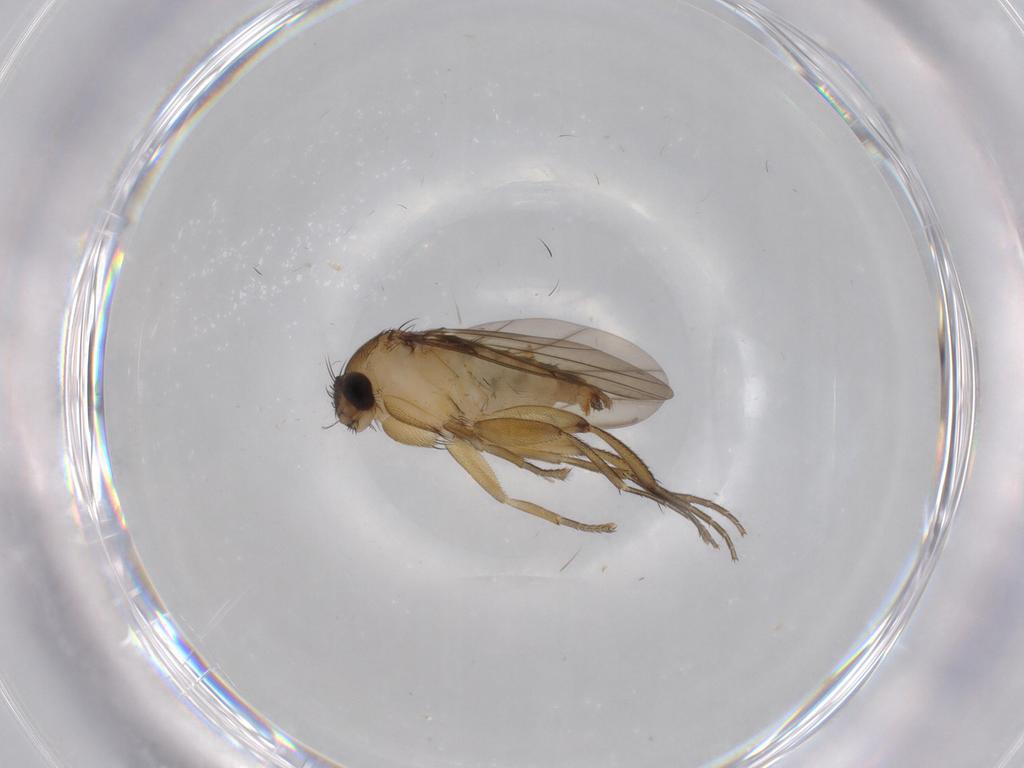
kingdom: Animalia
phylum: Arthropoda
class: Insecta
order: Diptera
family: Phoridae
